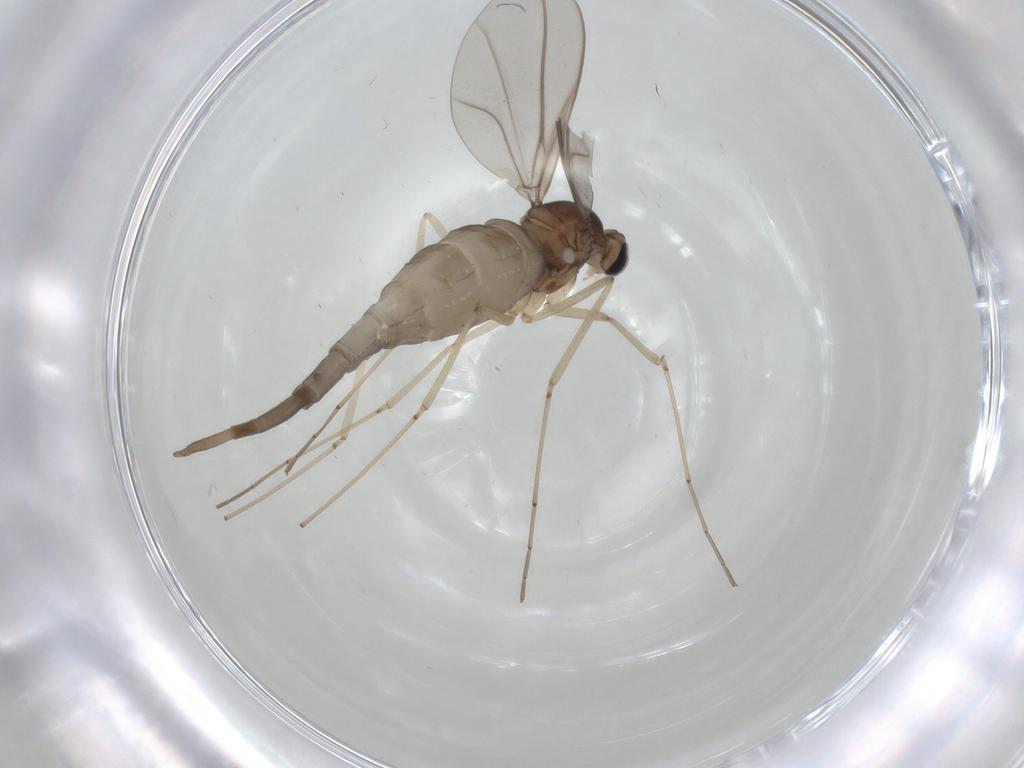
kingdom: Animalia
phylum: Arthropoda
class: Insecta
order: Diptera
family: Cecidomyiidae
